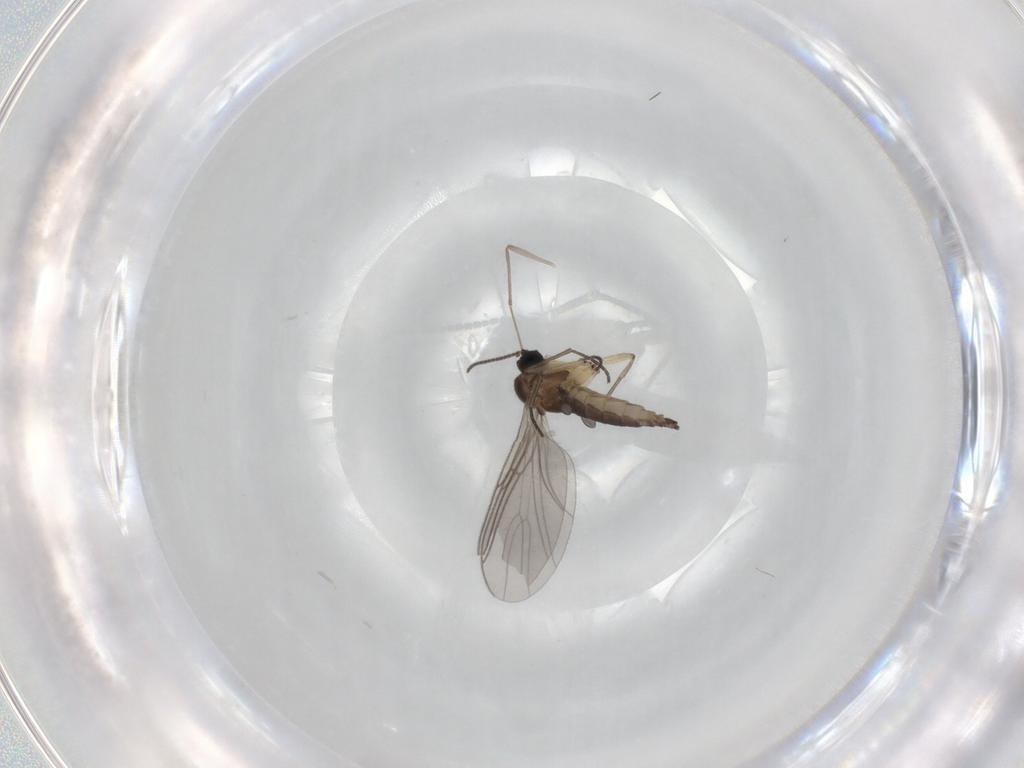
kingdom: Animalia
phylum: Arthropoda
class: Insecta
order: Diptera
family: Sciaridae
